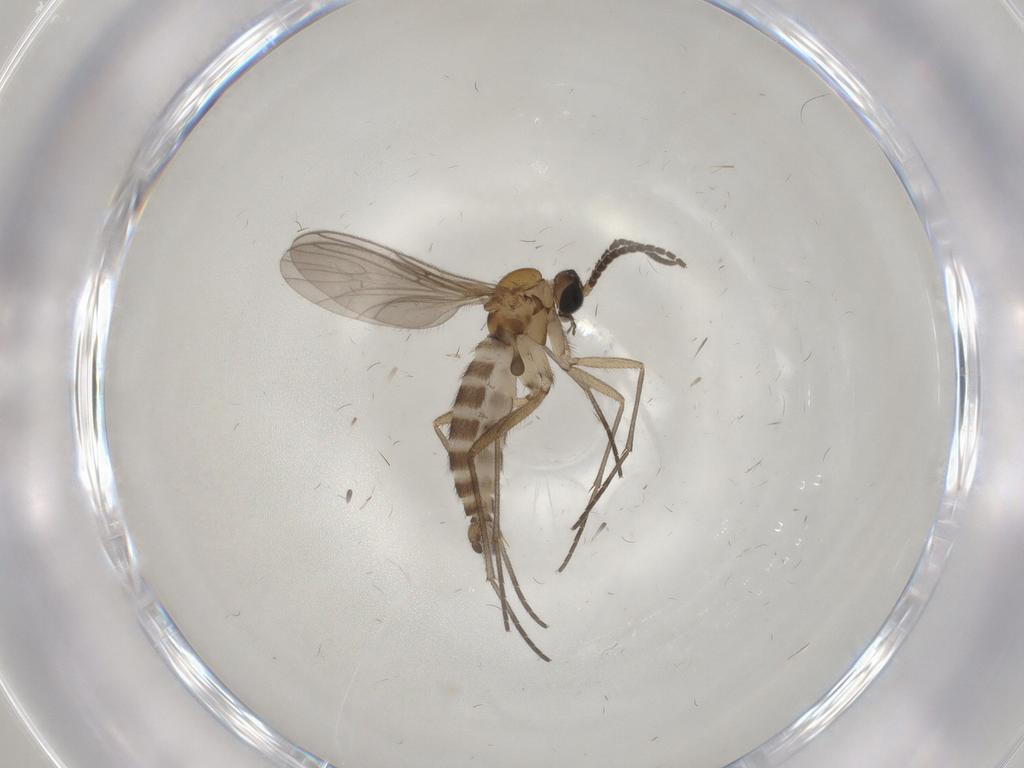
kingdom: Animalia
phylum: Arthropoda
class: Insecta
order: Diptera
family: Sciaridae
